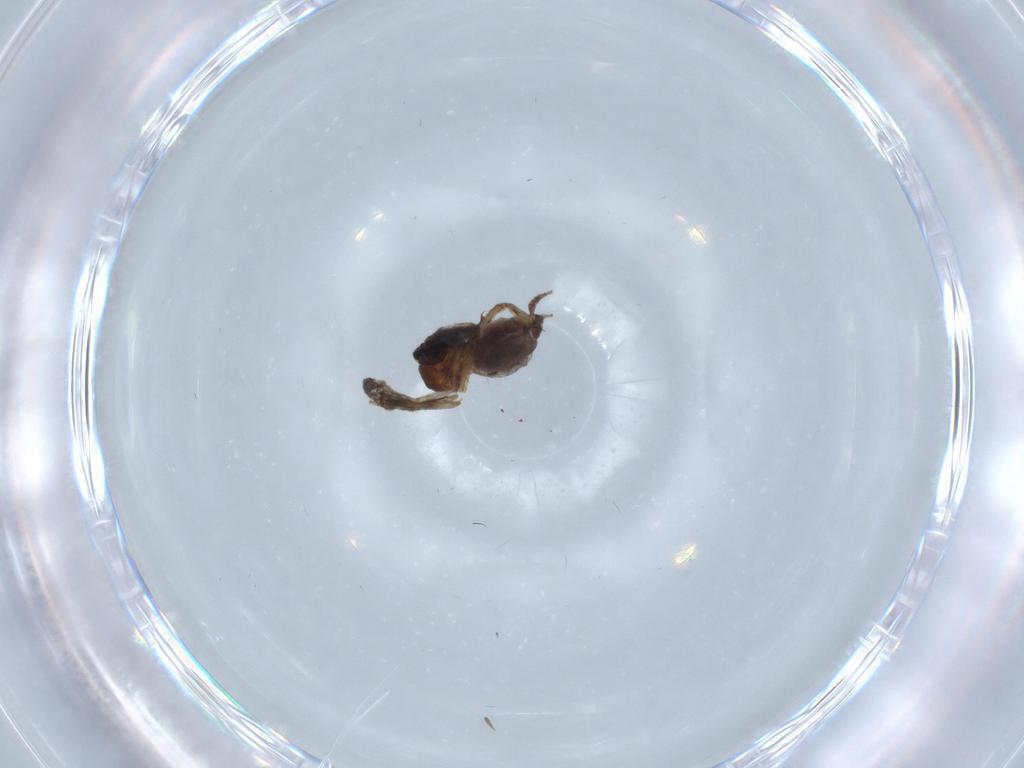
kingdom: Animalia
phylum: Arthropoda
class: Insecta
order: Diptera
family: Ceratopogonidae
